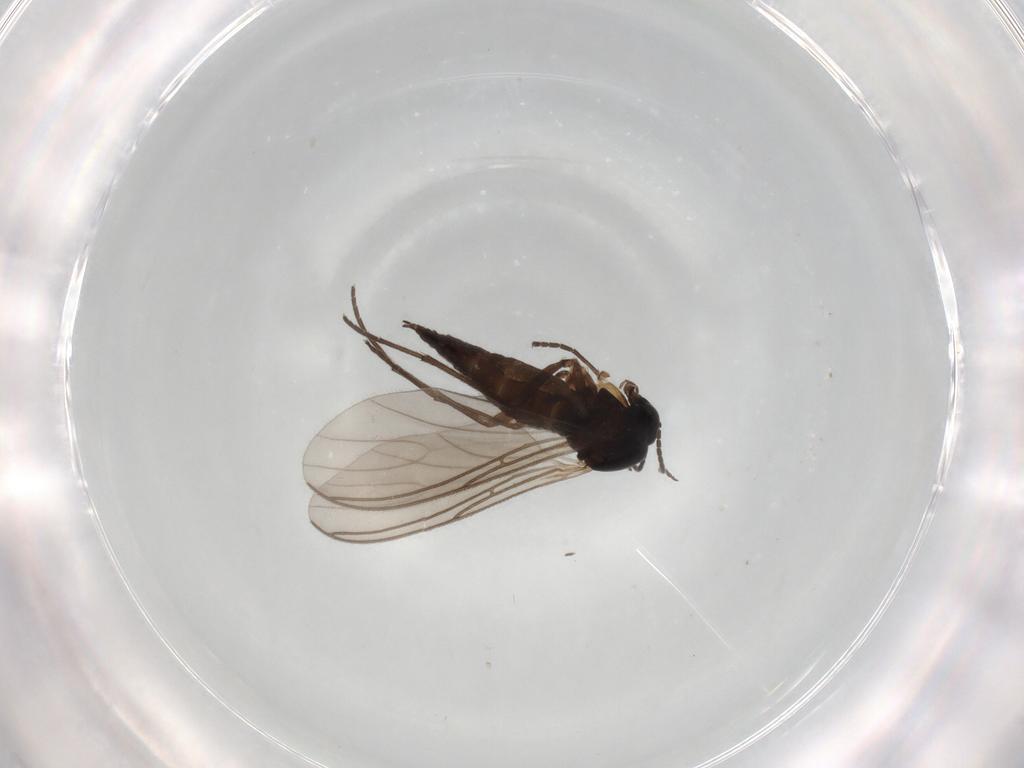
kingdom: Animalia
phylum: Arthropoda
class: Insecta
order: Diptera
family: Sciaridae
